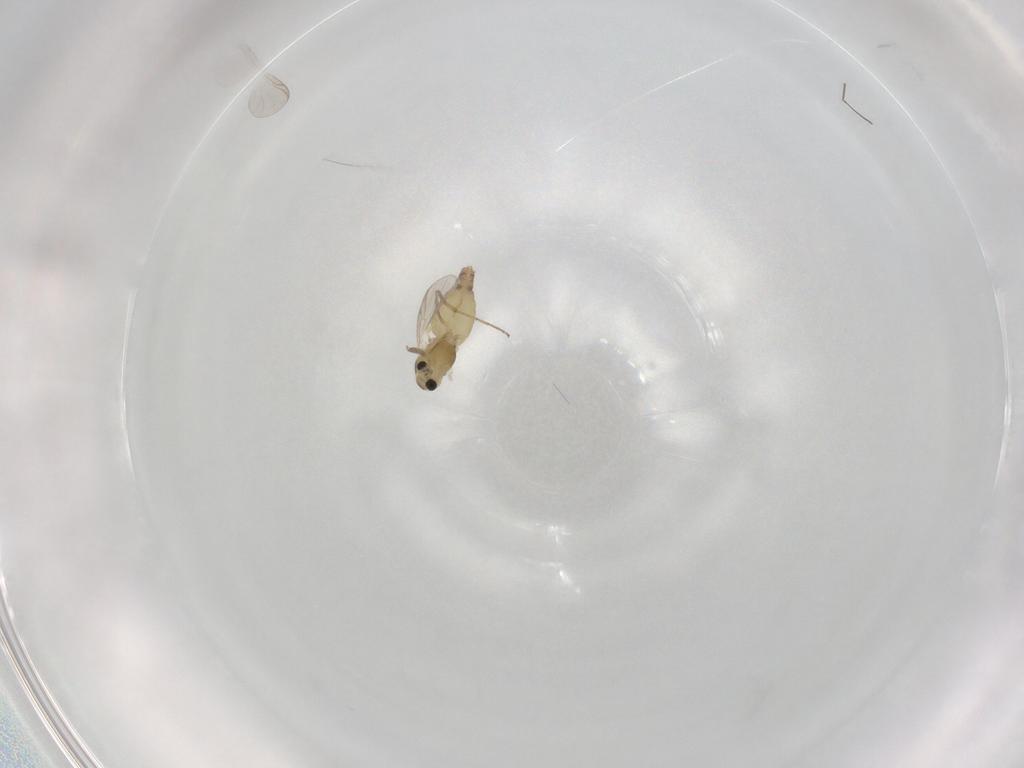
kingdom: Animalia
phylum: Arthropoda
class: Insecta
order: Diptera
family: Chironomidae
